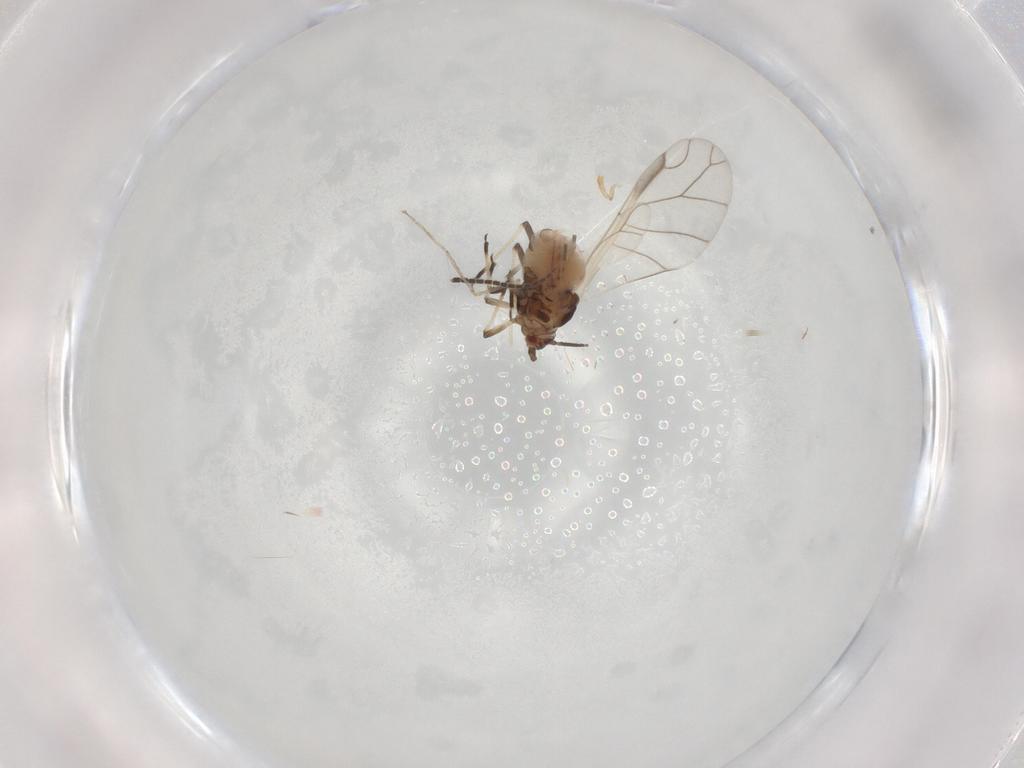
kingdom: Animalia
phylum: Arthropoda
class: Insecta
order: Hemiptera
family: Aphididae
